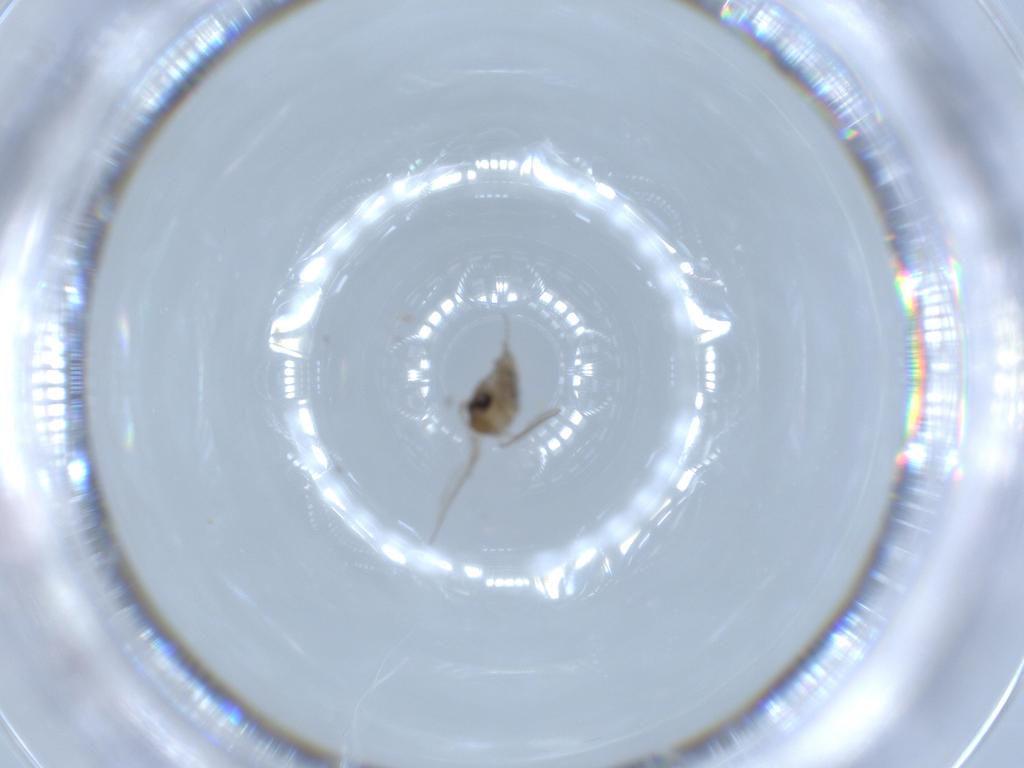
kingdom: Animalia
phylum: Arthropoda
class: Insecta
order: Diptera
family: Psychodidae
